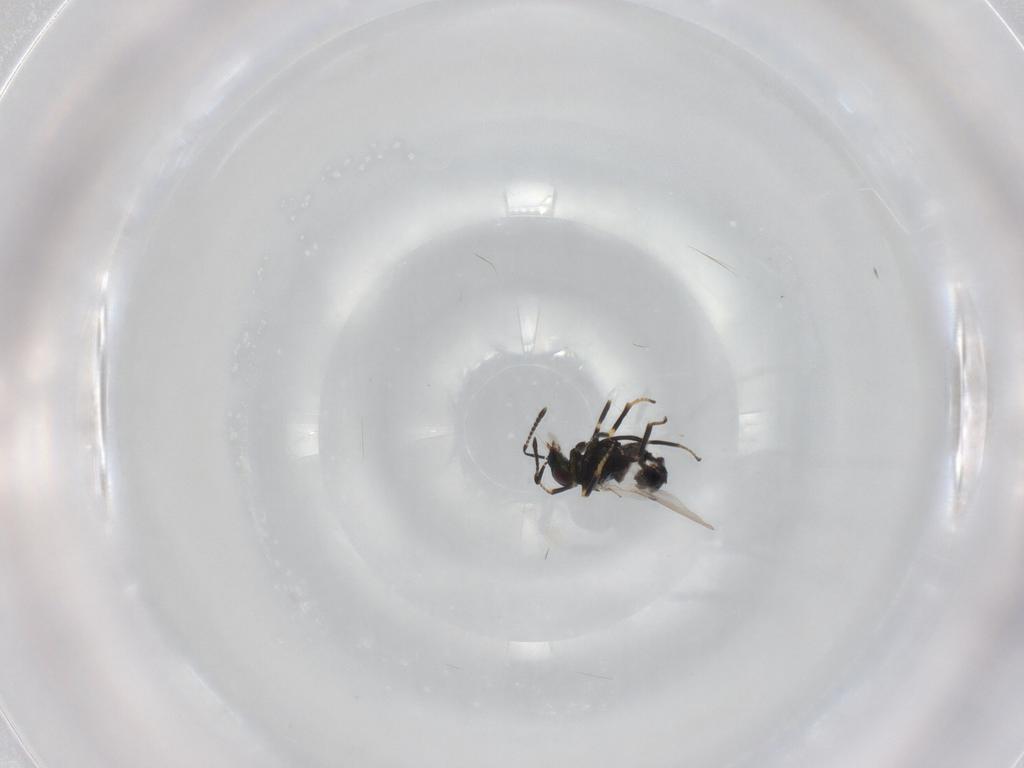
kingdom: Animalia
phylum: Arthropoda
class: Insecta
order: Hymenoptera
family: Encyrtidae
